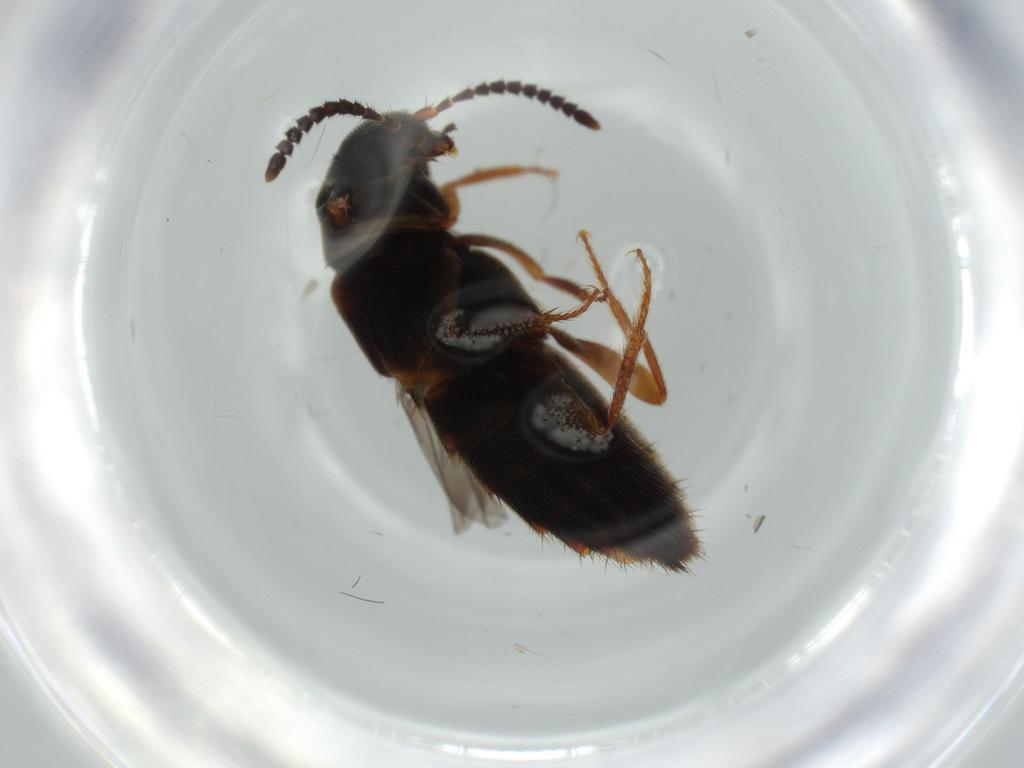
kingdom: Animalia
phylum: Arthropoda
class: Insecta
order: Coleoptera
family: Staphylinidae
